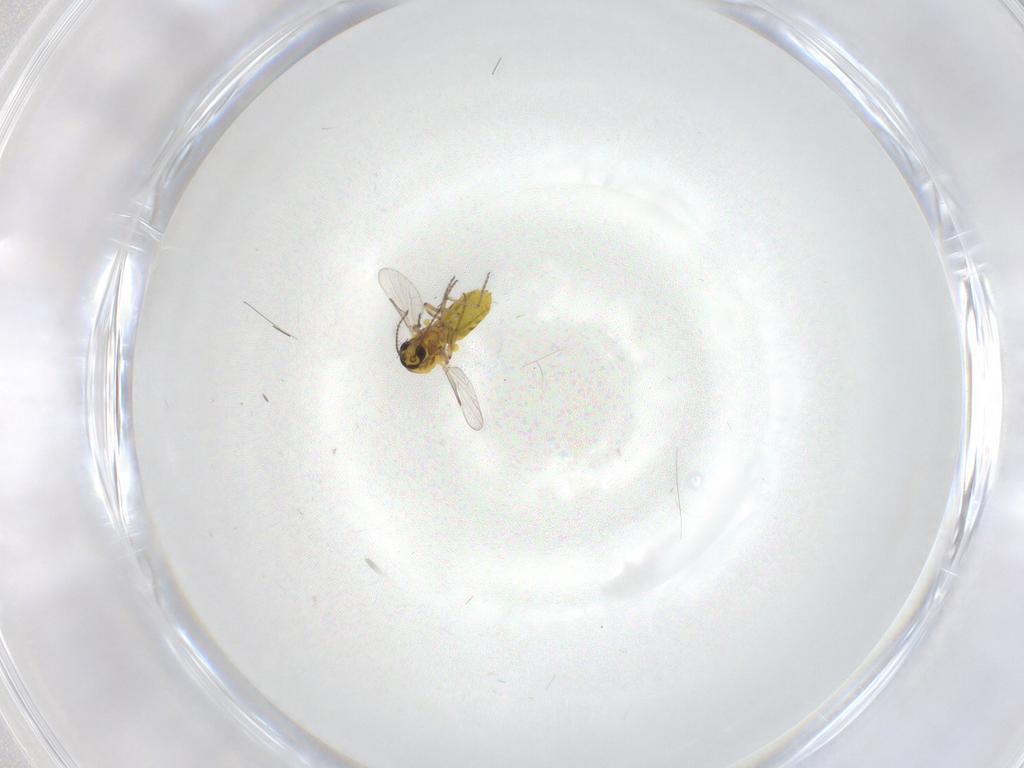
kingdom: Animalia
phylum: Arthropoda
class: Insecta
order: Diptera
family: Ceratopogonidae
